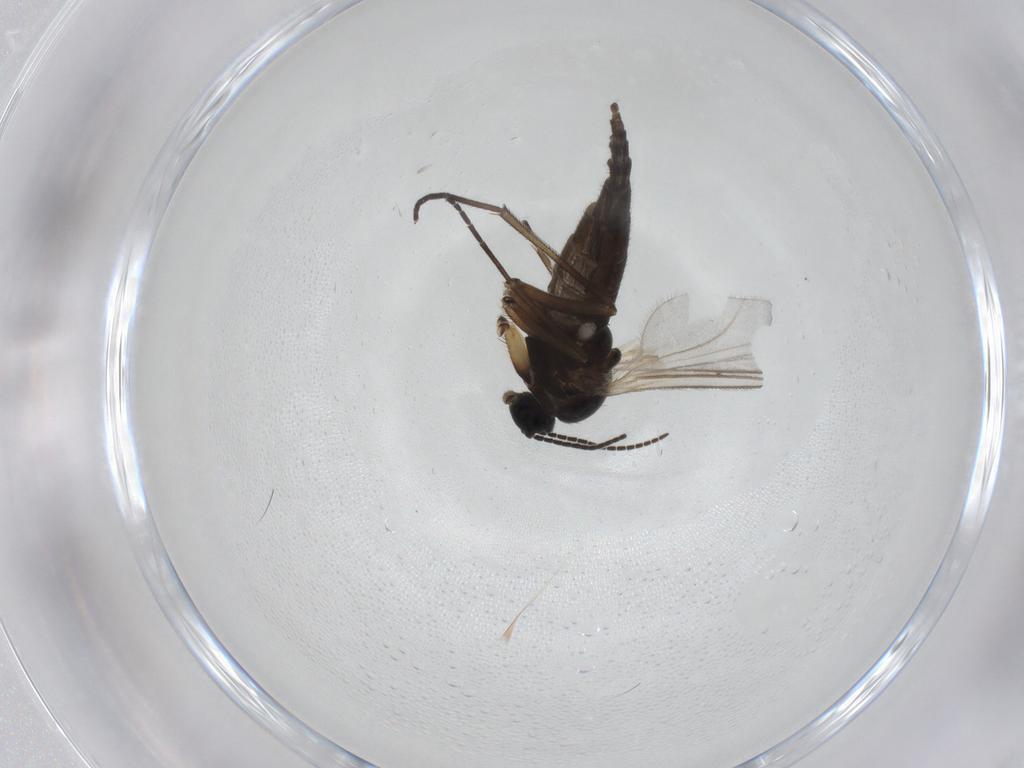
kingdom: Animalia
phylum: Arthropoda
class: Insecta
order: Diptera
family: Sciaridae
